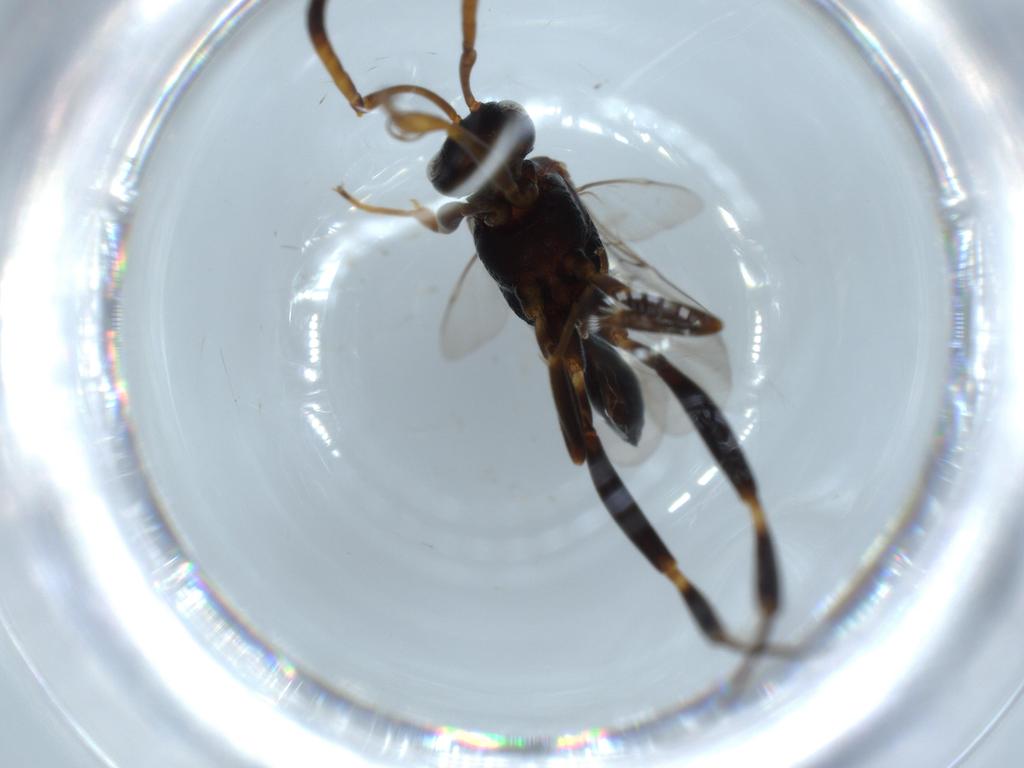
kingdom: Animalia
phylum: Arthropoda
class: Insecta
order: Hymenoptera
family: Evaniidae
